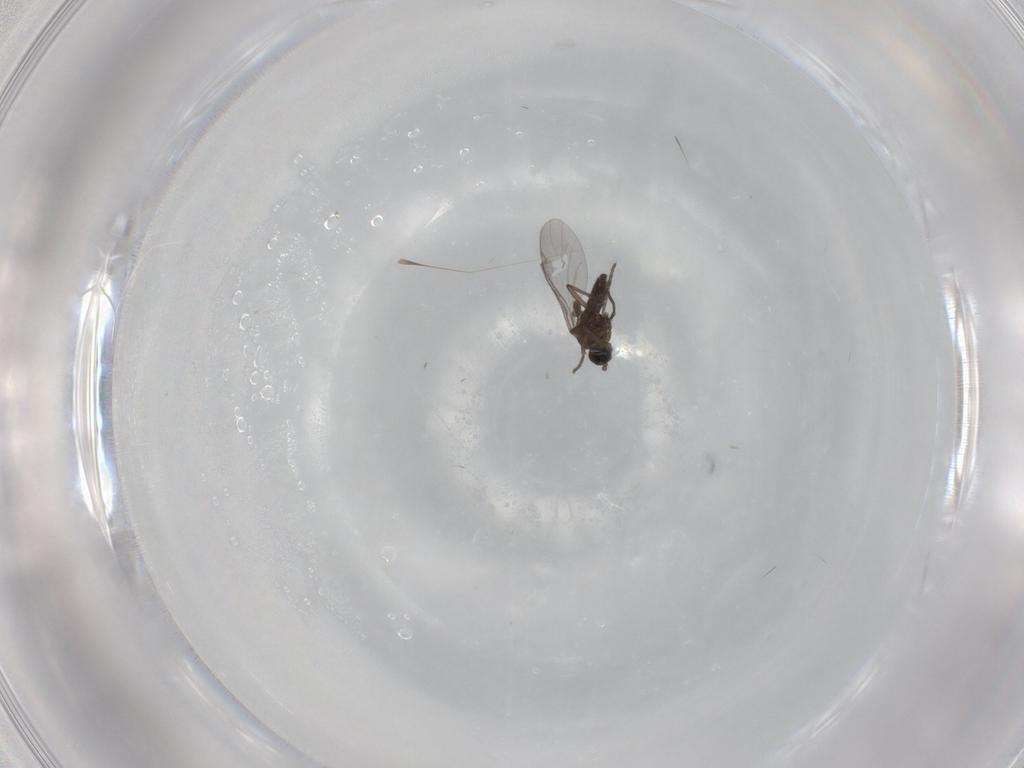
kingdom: Animalia
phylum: Arthropoda
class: Insecta
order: Diptera
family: Sciaridae
